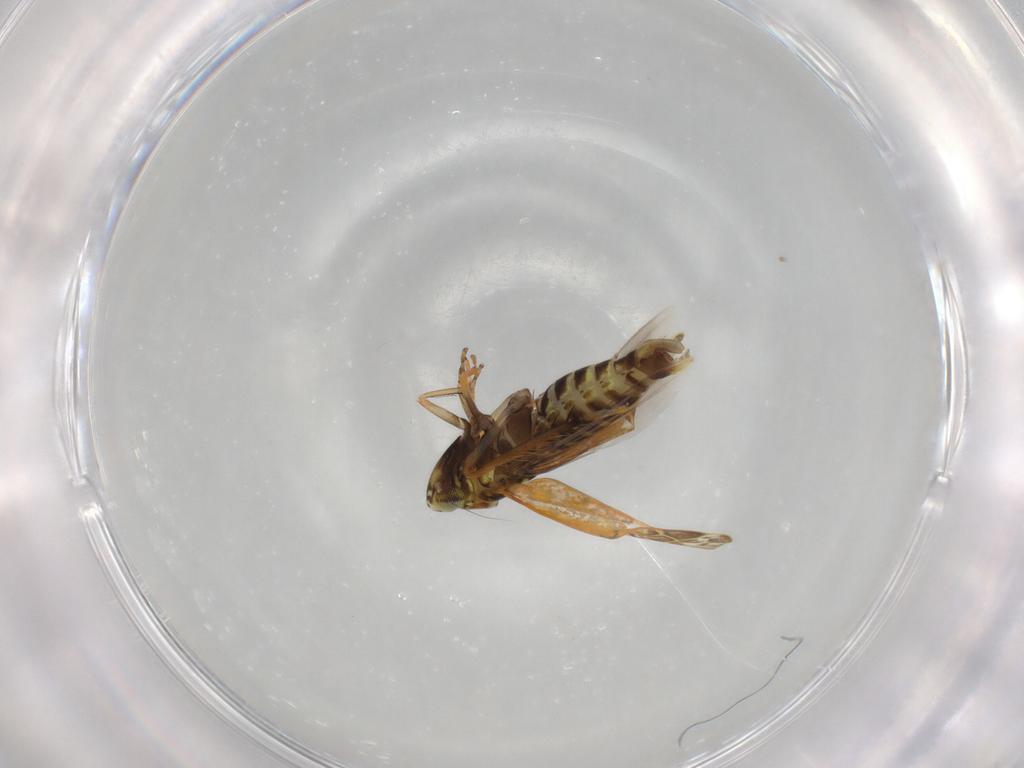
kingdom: Animalia
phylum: Arthropoda
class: Insecta
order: Hemiptera
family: Cicadellidae
